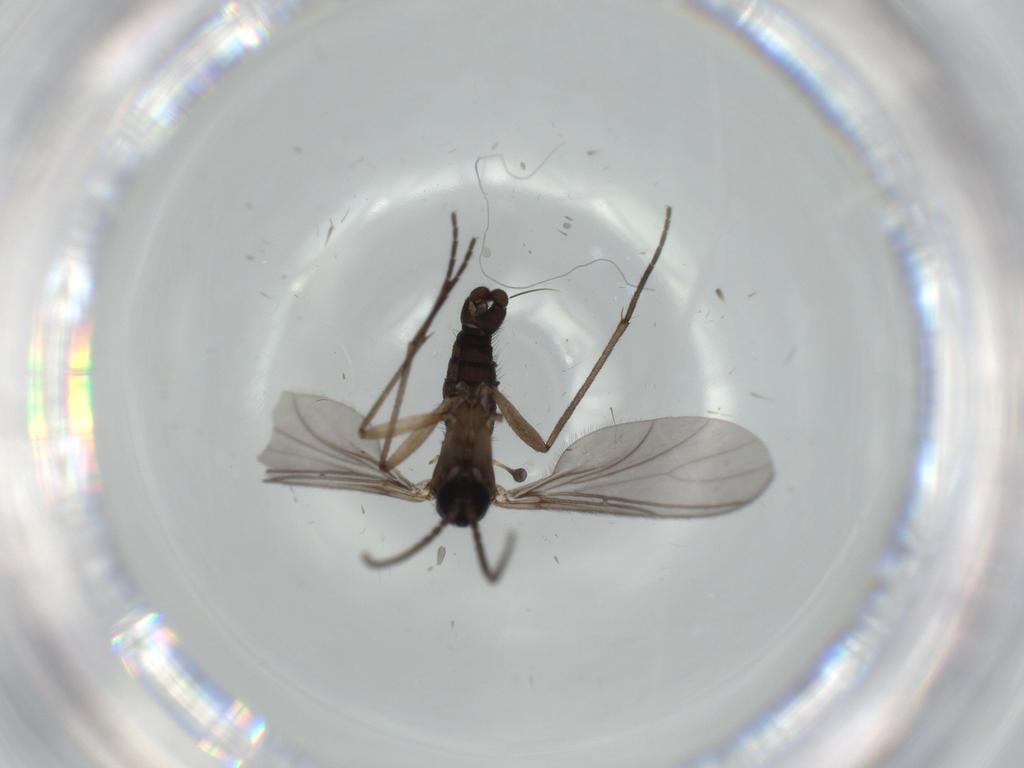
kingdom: Animalia
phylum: Arthropoda
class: Insecta
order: Diptera
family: Sciaridae
